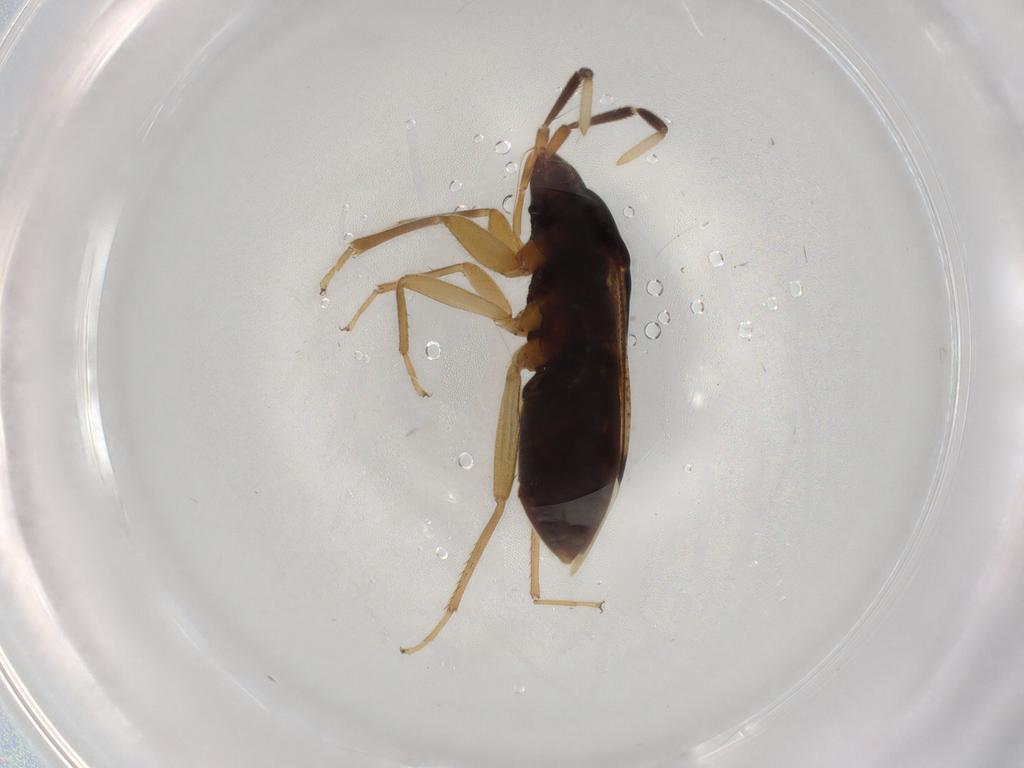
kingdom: Animalia
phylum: Arthropoda
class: Insecta
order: Hemiptera
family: Rhyparochromidae
